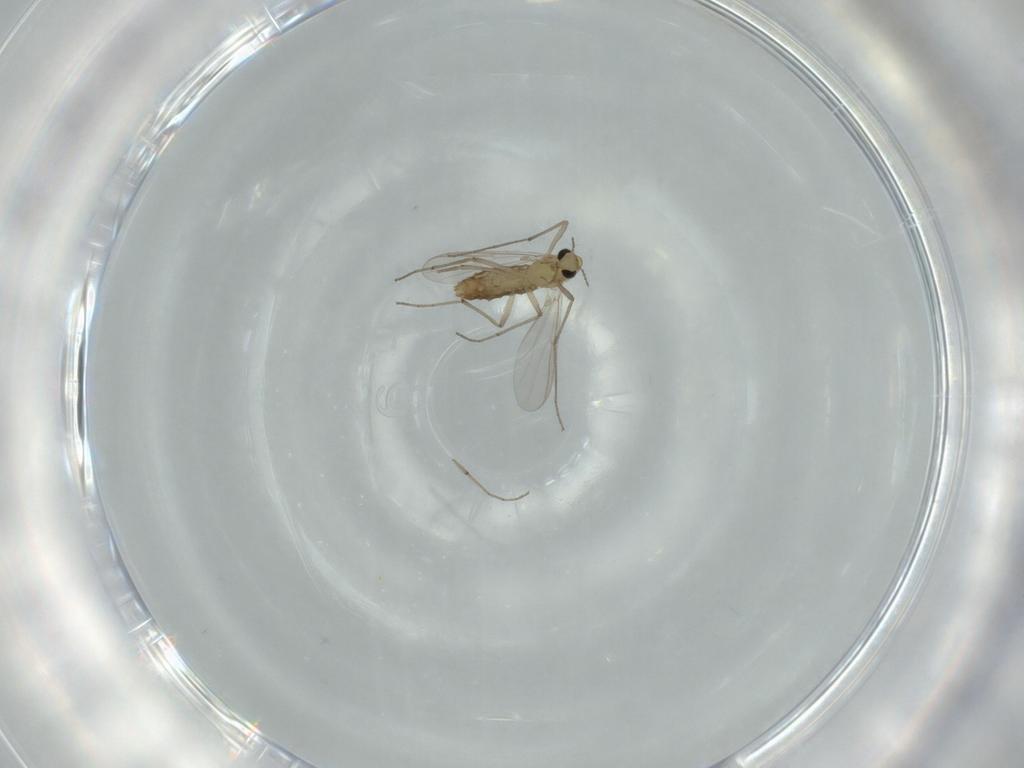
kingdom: Animalia
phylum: Arthropoda
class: Insecta
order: Diptera
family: Chironomidae
